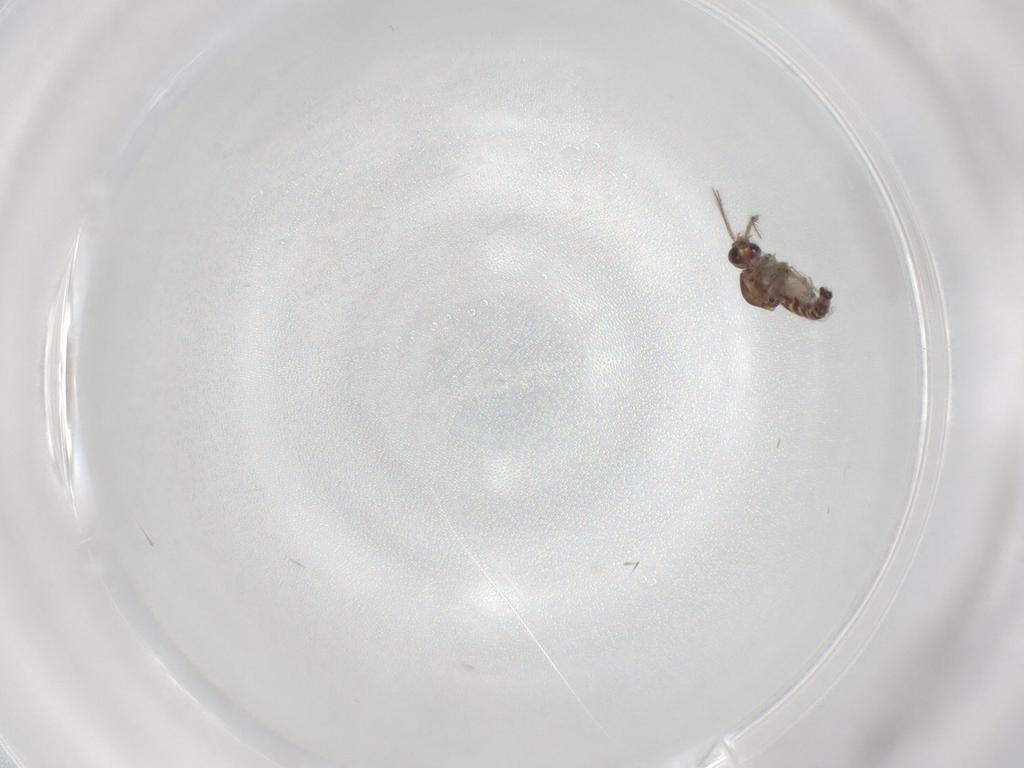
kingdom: Animalia
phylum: Arthropoda
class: Insecta
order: Diptera
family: Ceratopogonidae
